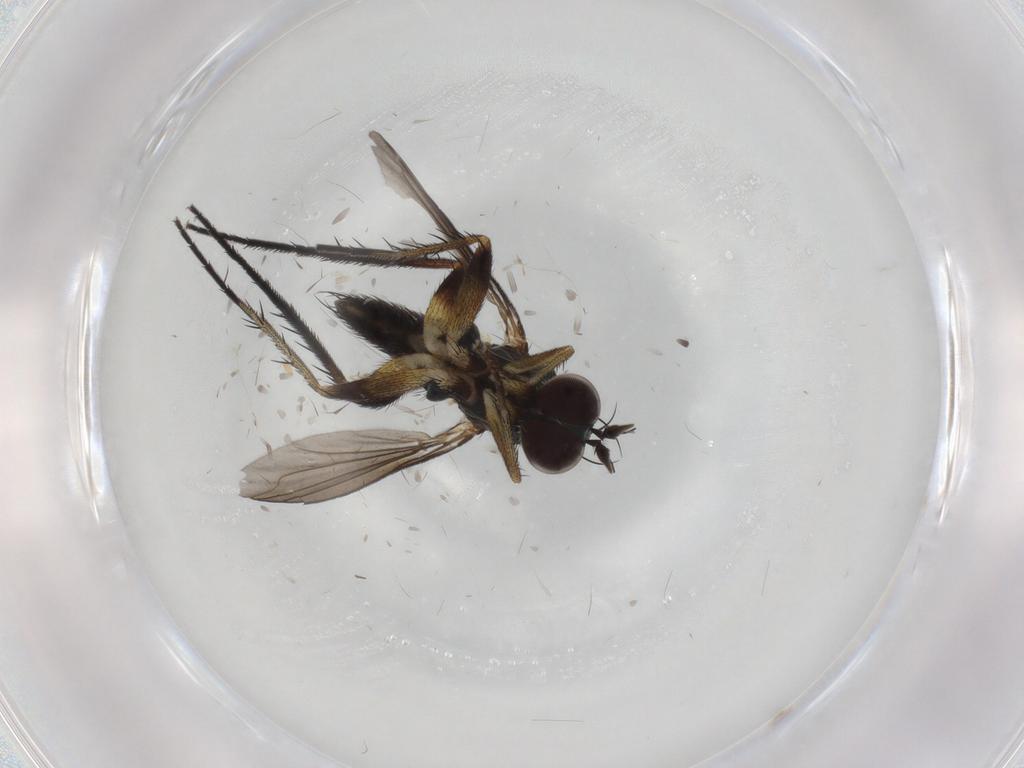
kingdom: Animalia
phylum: Arthropoda
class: Insecta
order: Diptera
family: Dolichopodidae
